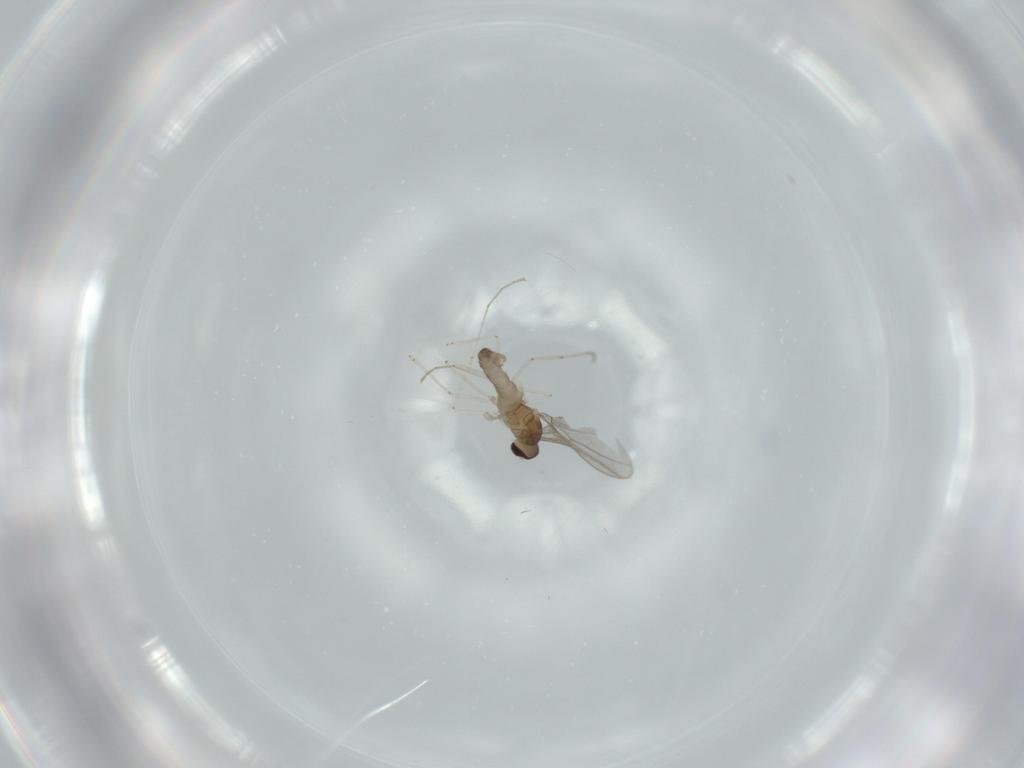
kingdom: Animalia
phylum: Arthropoda
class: Insecta
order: Diptera
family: Cecidomyiidae
